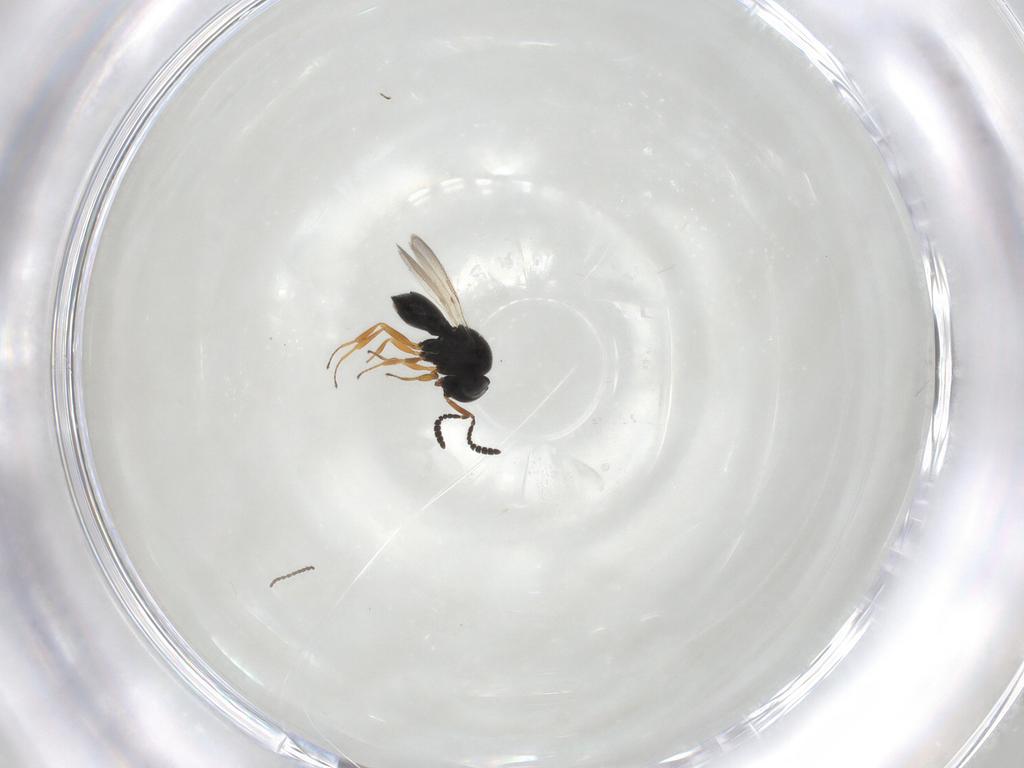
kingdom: Animalia
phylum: Arthropoda
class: Insecta
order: Hymenoptera
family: Scelionidae
